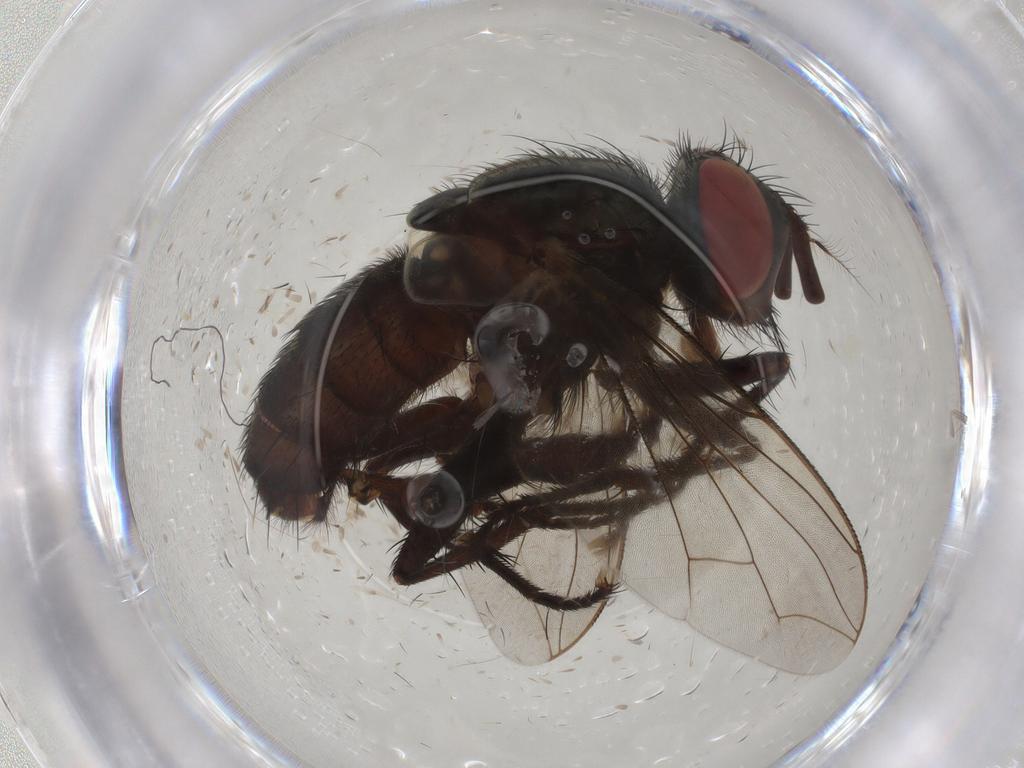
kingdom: Animalia
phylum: Arthropoda
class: Insecta
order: Diptera
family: Sarcophagidae
